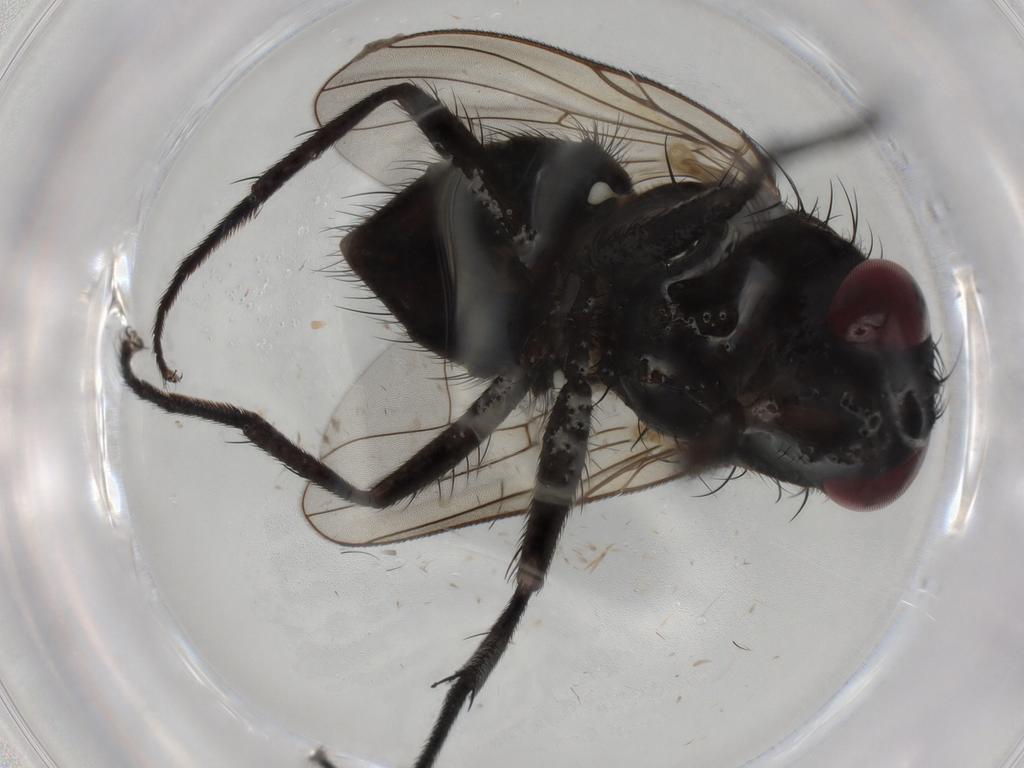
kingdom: Animalia
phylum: Arthropoda
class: Insecta
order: Diptera
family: Muscidae
